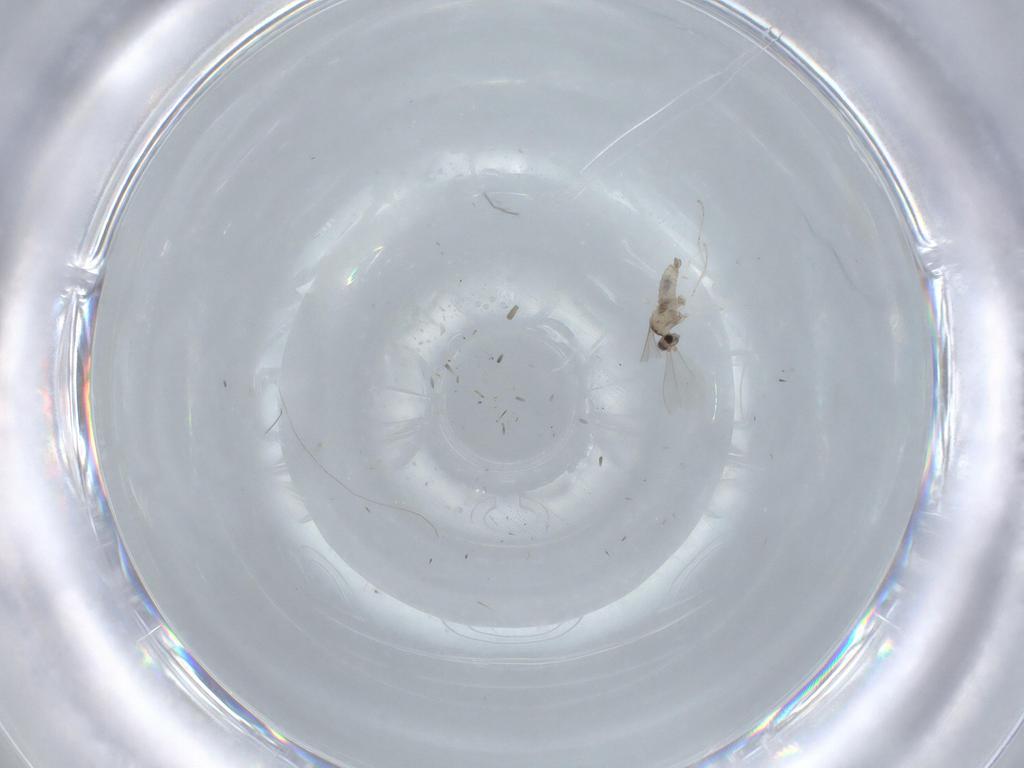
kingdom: Animalia
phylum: Arthropoda
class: Insecta
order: Diptera
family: Cecidomyiidae
